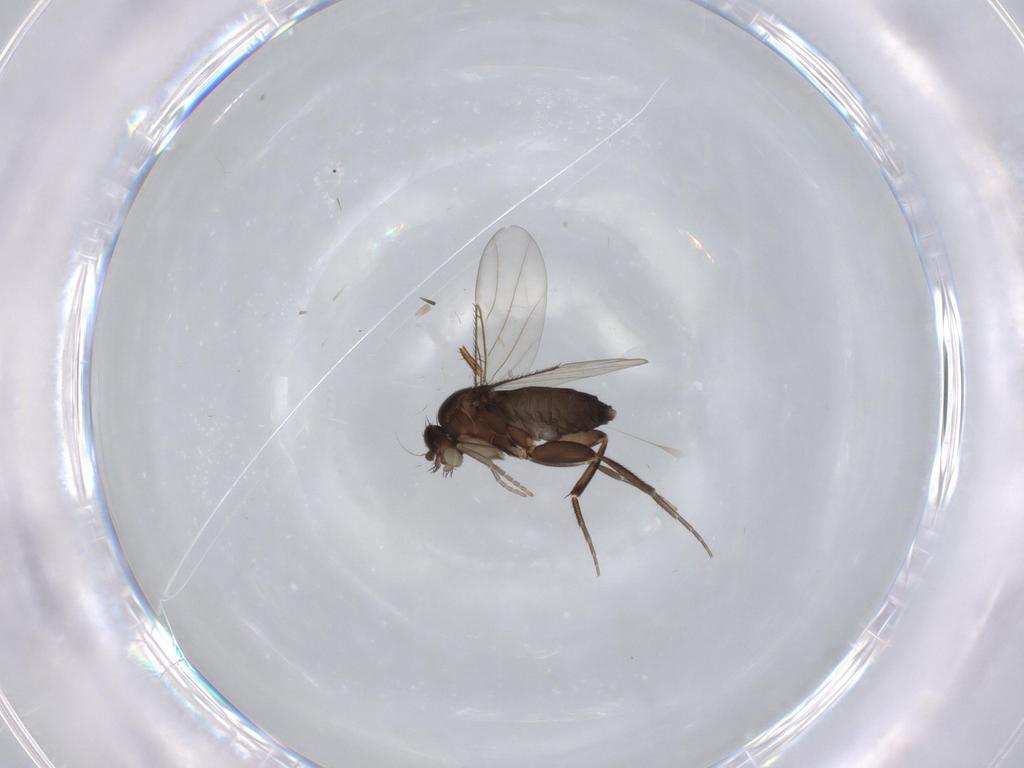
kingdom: Animalia
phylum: Arthropoda
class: Insecta
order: Diptera
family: Phoridae
